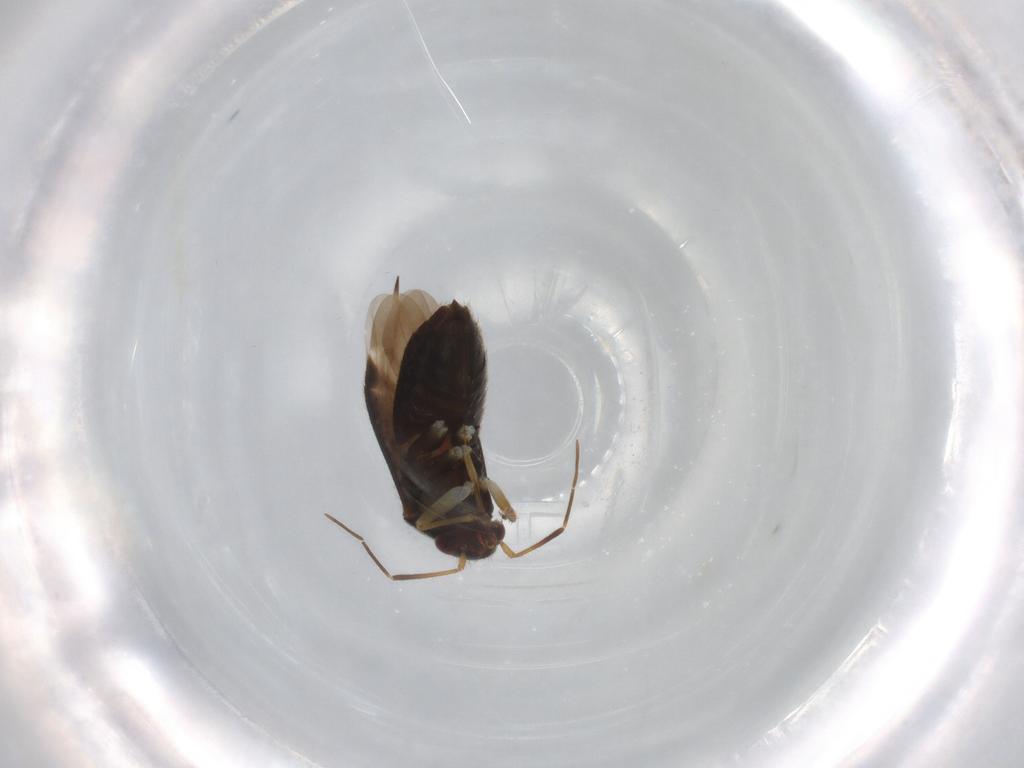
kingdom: Animalia
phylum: Arthropoda
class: Insecta
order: Hemiptera
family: Miridae
